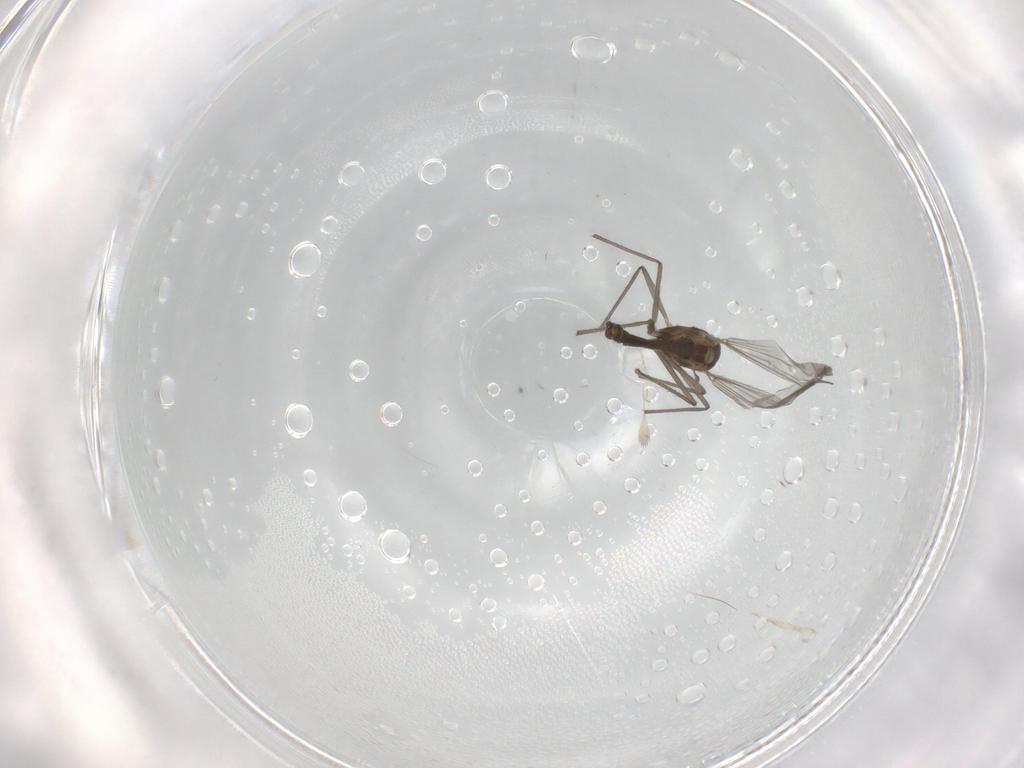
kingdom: Animalia
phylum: Arthropoda
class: Insecta
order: Diptera
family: Chironomidae
